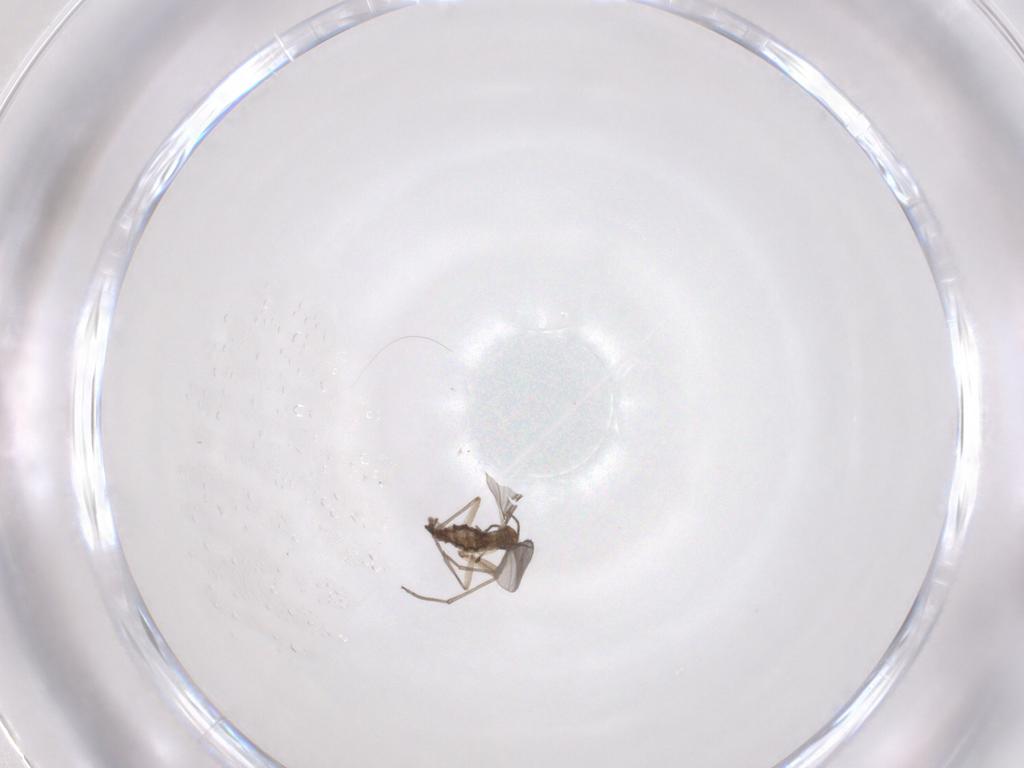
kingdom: Animalia
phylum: Arthropoda
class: Insecta
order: Diptera
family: Sciaridae
